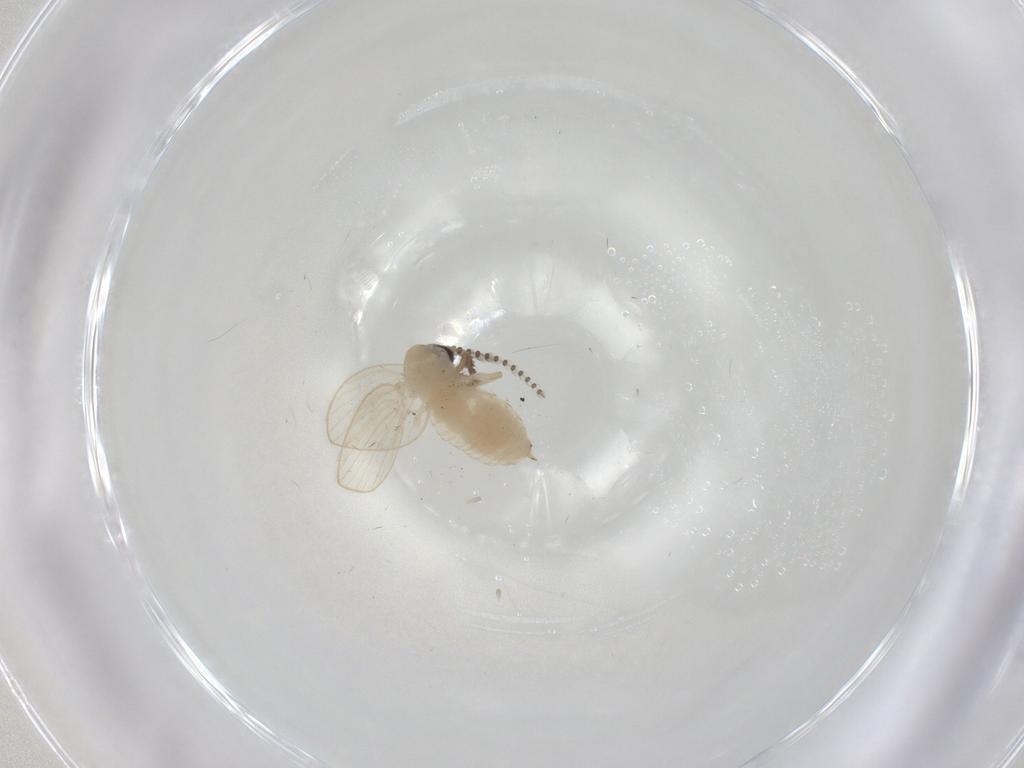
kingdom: Animalia
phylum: Arthropoda
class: Insecta
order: Diptera
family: Psychodidae
